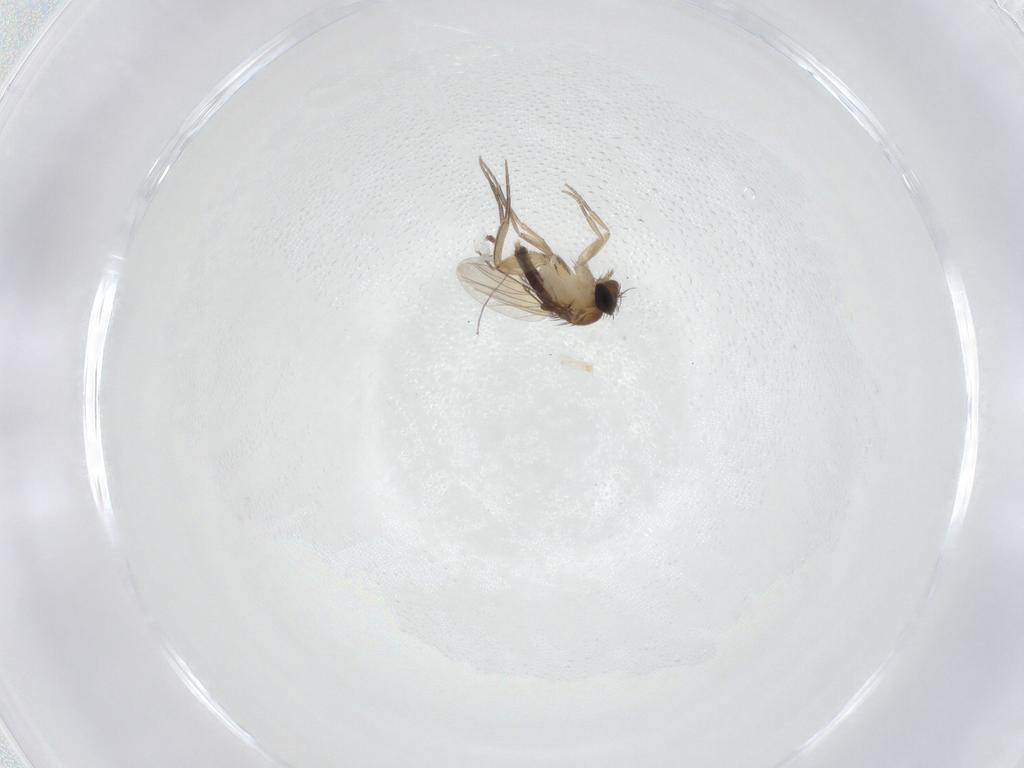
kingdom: Animalia
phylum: Arthropoda
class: Insecta
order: Diptera
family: Phoridae
